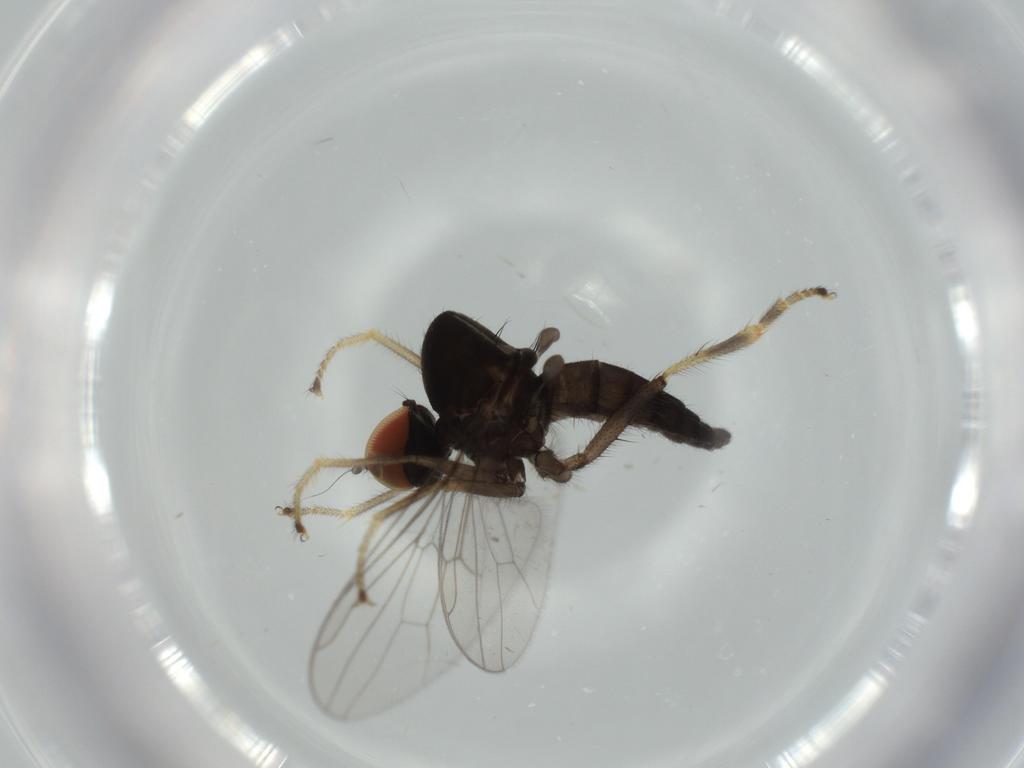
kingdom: Animalia
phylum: Arthropoda
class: Insecta
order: Diptera
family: Hybotidae
